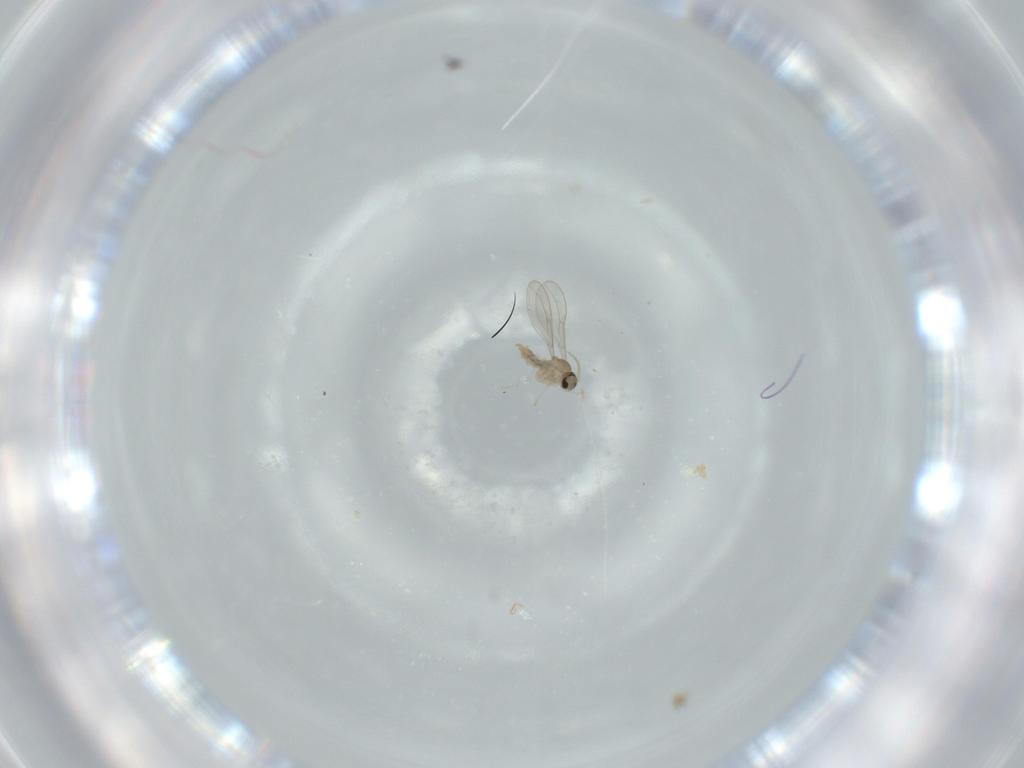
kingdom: Animalia
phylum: Arthropoda
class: Insecta
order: Diptera
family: Cecidomyiidae
